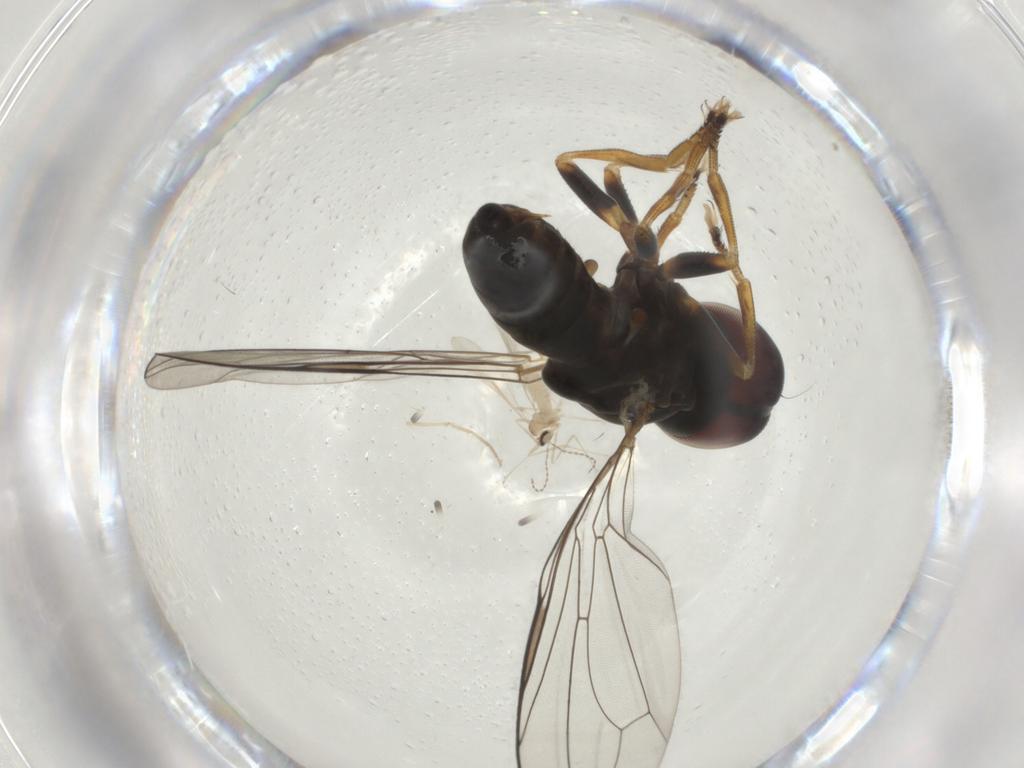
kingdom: Animalia
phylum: Arthropoda
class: Insecta
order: Diptera
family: Pipunculidae
